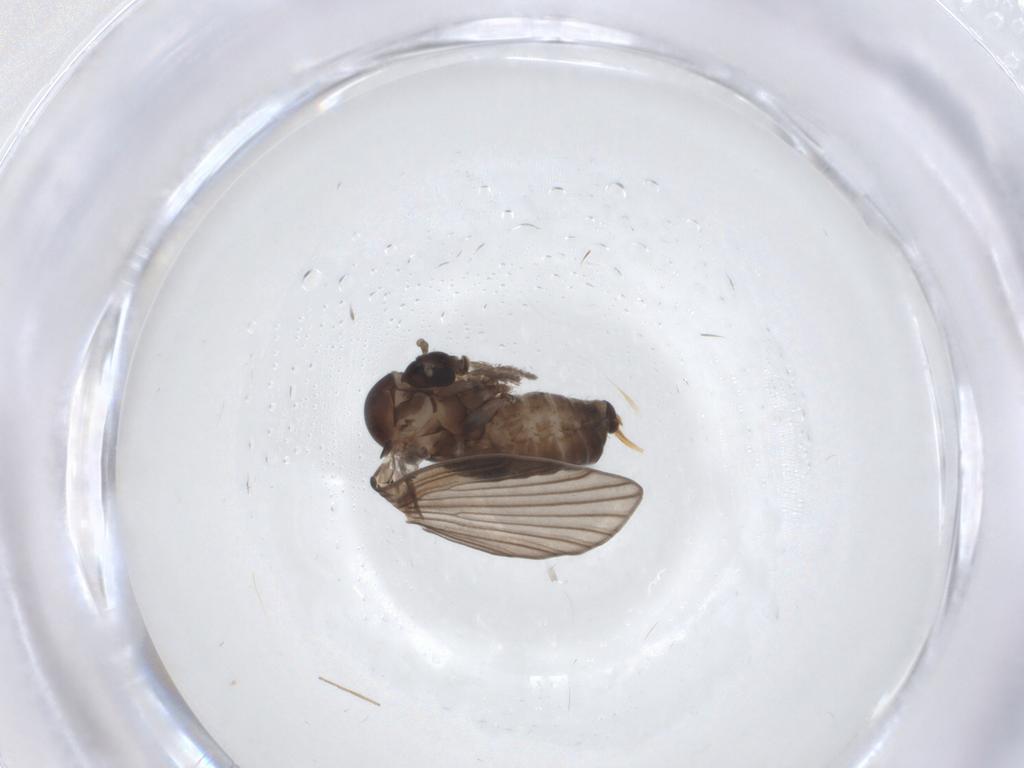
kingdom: Animalia
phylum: Arthropoda
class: Insecta
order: Diptera
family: Psychodidae
